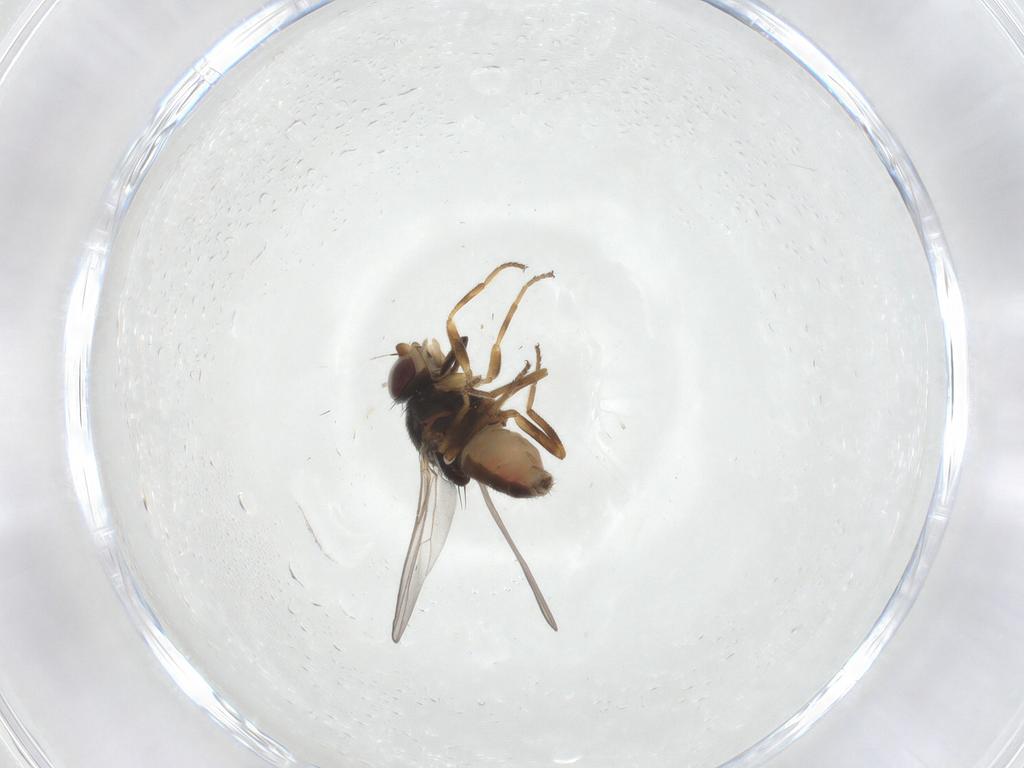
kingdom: Animalia
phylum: Arthropoda
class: Insecta
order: Diptera
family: Chloropidae
